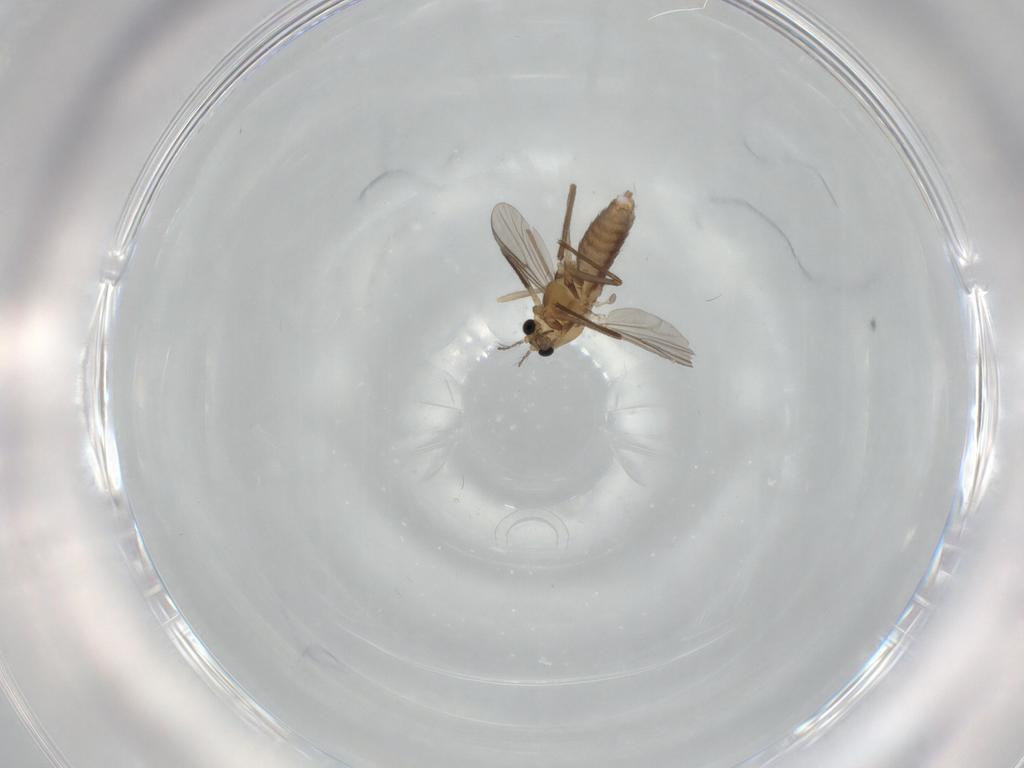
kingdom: Animalia
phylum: Arthropoda
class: Insecta
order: Diptera
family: Chironomidae
